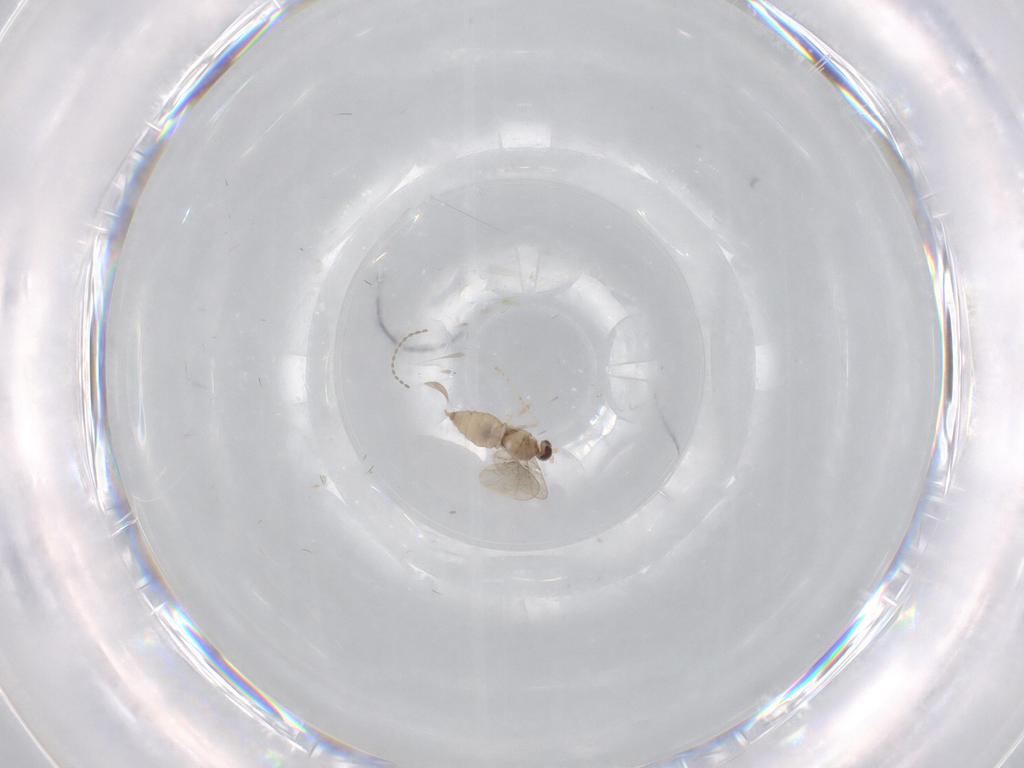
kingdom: Animalia
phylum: Arthropoda
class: Insecta
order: Diptera
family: Cecidomyiidae
